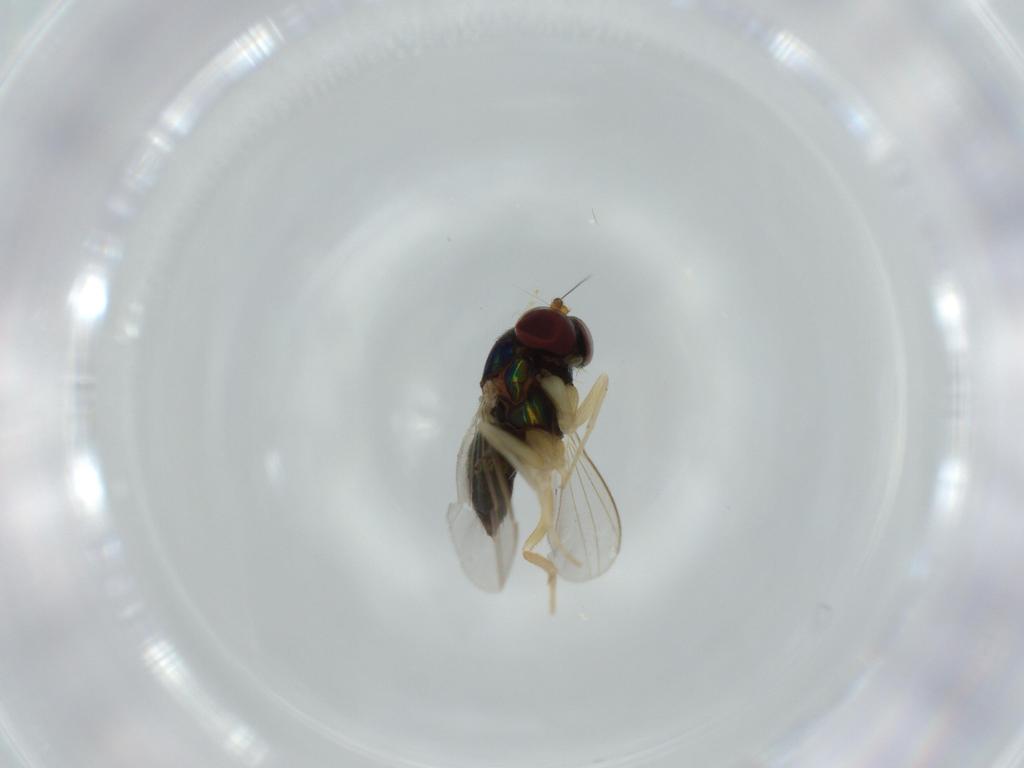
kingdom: Animalia
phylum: Arthropoda
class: Insecta
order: Diptera
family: Dolichopodidae
